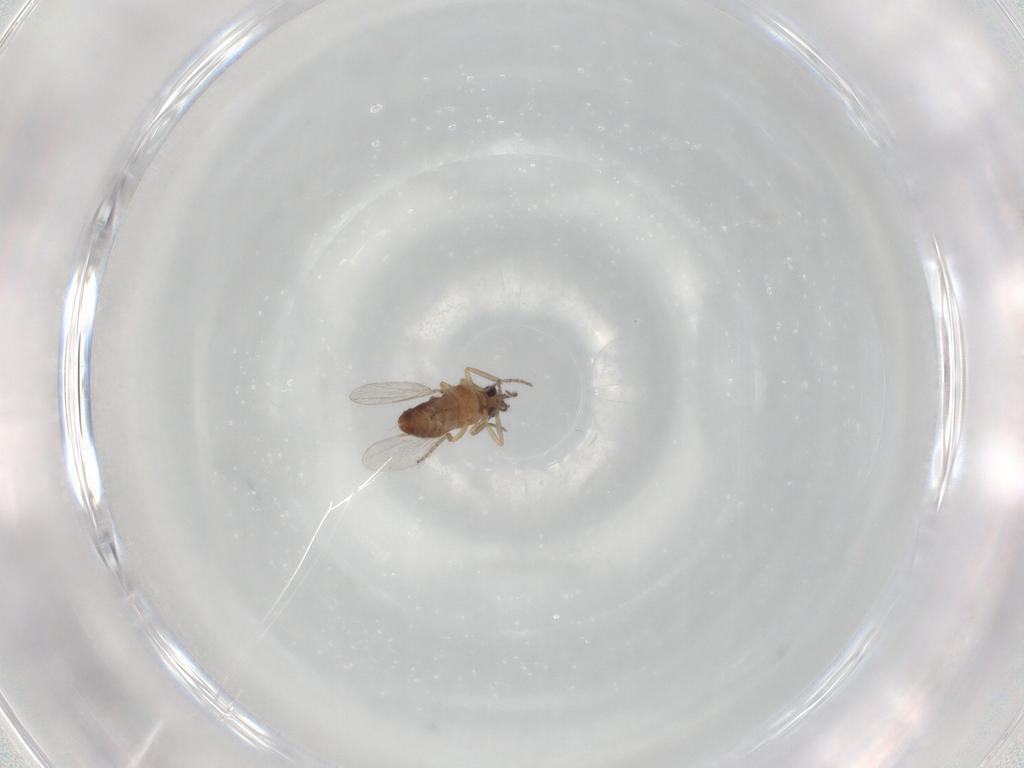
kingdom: Animalia
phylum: Arthropoda
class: Insecta
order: Diptera
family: Ceratopogonidae
